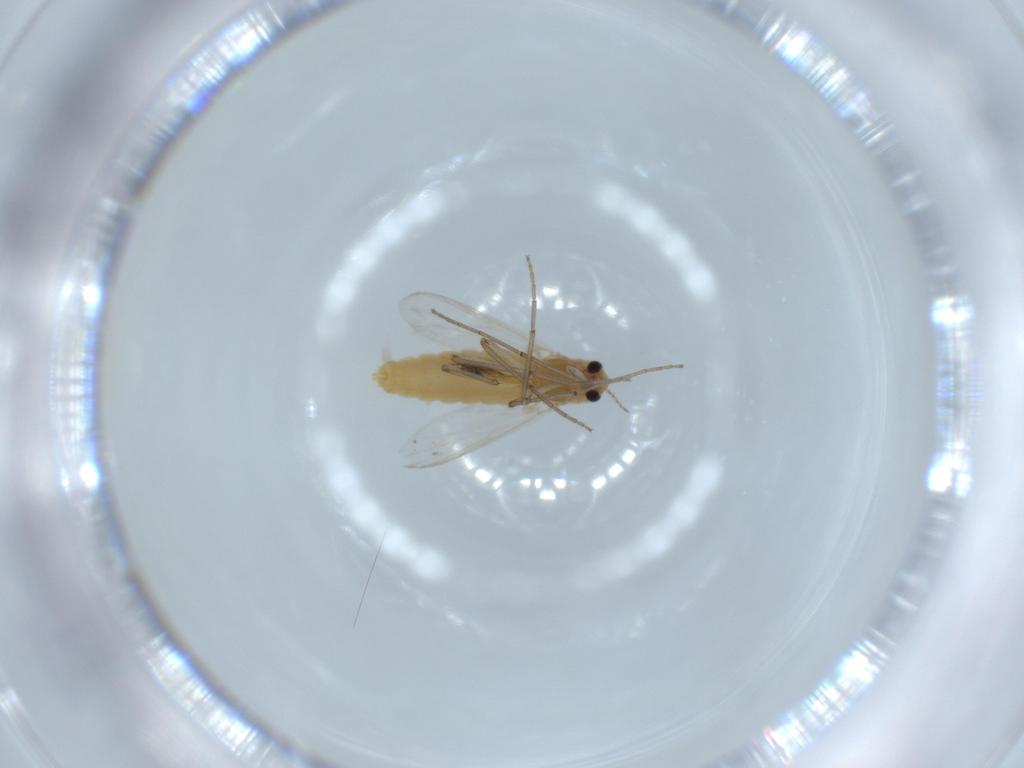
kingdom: Animalia
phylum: Arthropoda
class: Insecta
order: Diptera
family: Chironomidae
